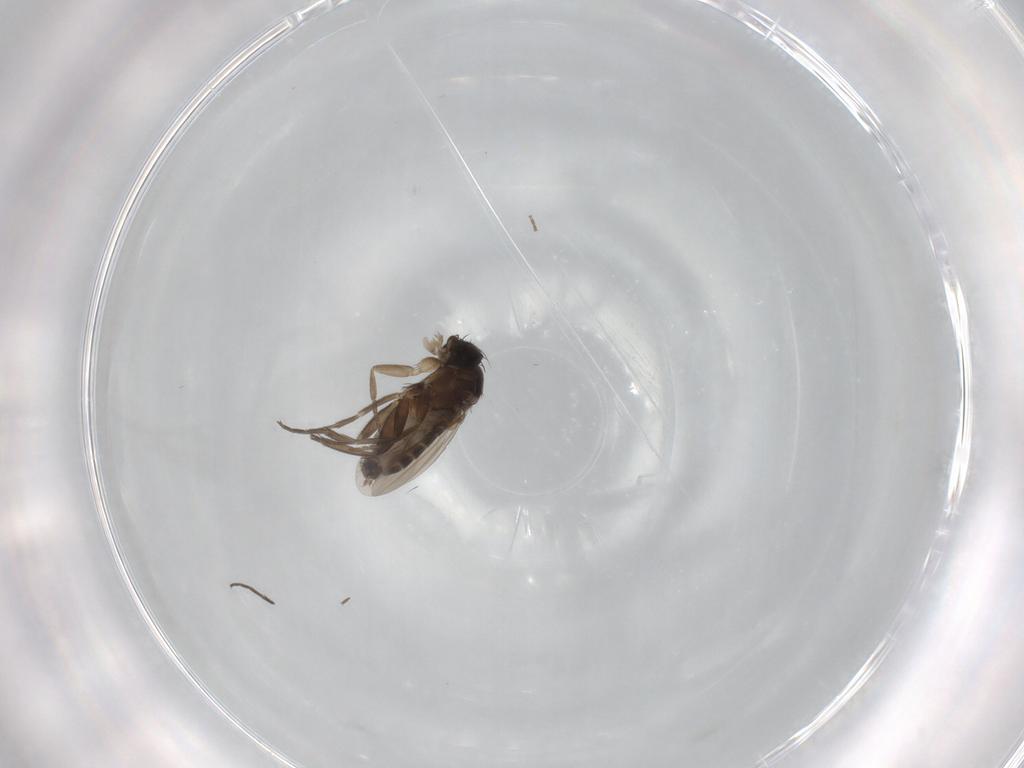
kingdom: Animalia
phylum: Arthropoda
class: Insecta
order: Diptera
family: Phoridae
